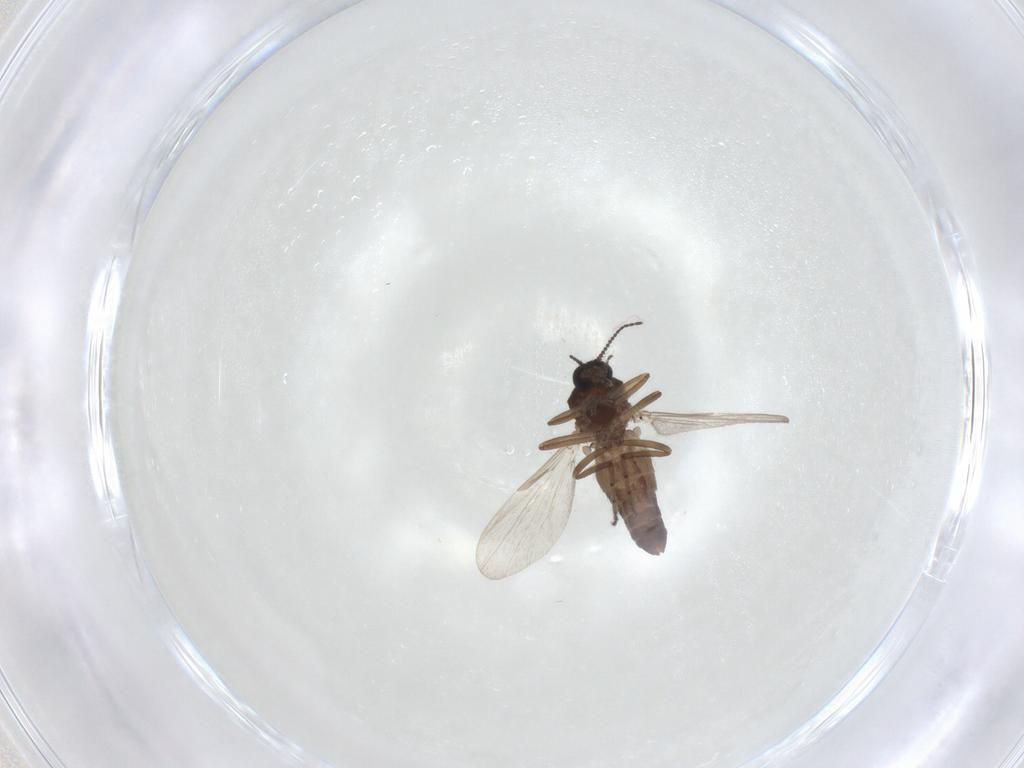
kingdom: Animalia
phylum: Arthropoda
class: Insecta
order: Diptera
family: Ceratopogonidae
